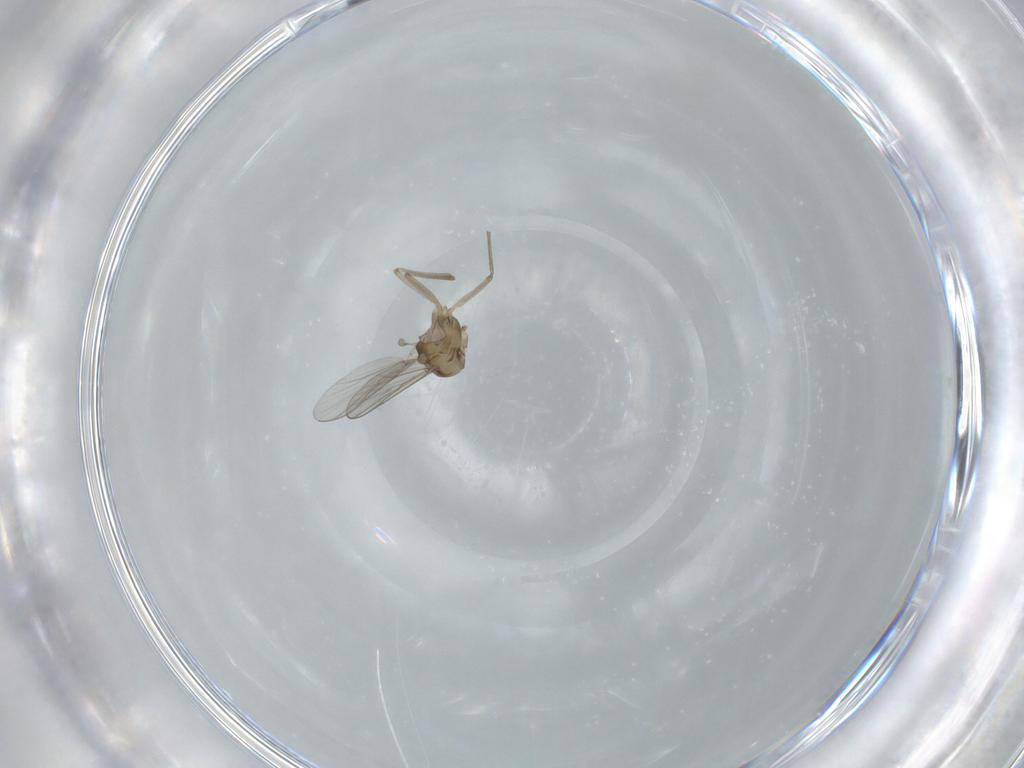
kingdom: Animalia
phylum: Arthropoda
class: Insecta
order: Diptera
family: Chironomidae
